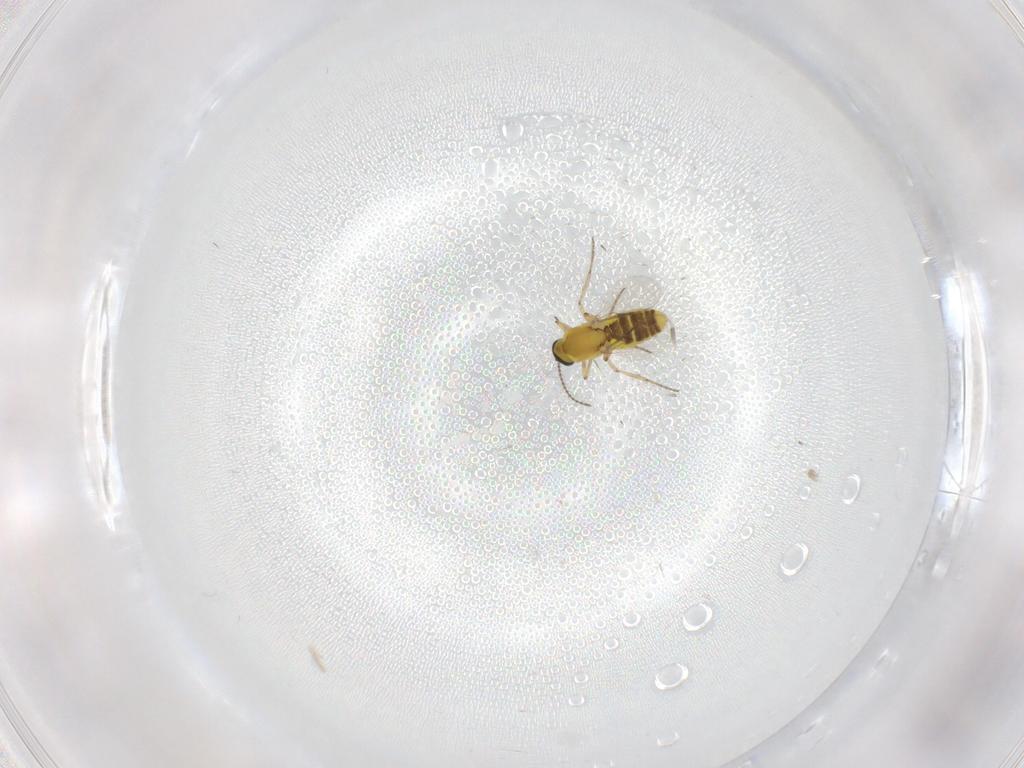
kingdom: Animalia
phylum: Arthropoda
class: Insecta
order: Diptera
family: Ceratopogonidae
